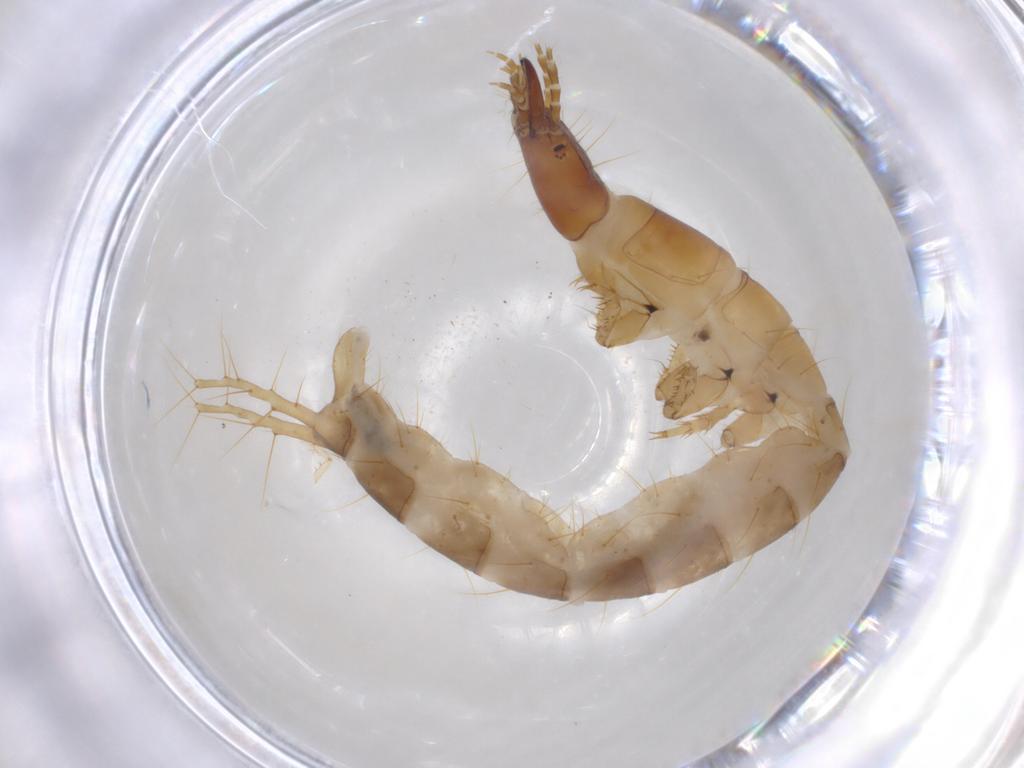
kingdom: Animalia
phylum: Arthropoda
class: Insecta
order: Coleoptera
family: Carabidae
